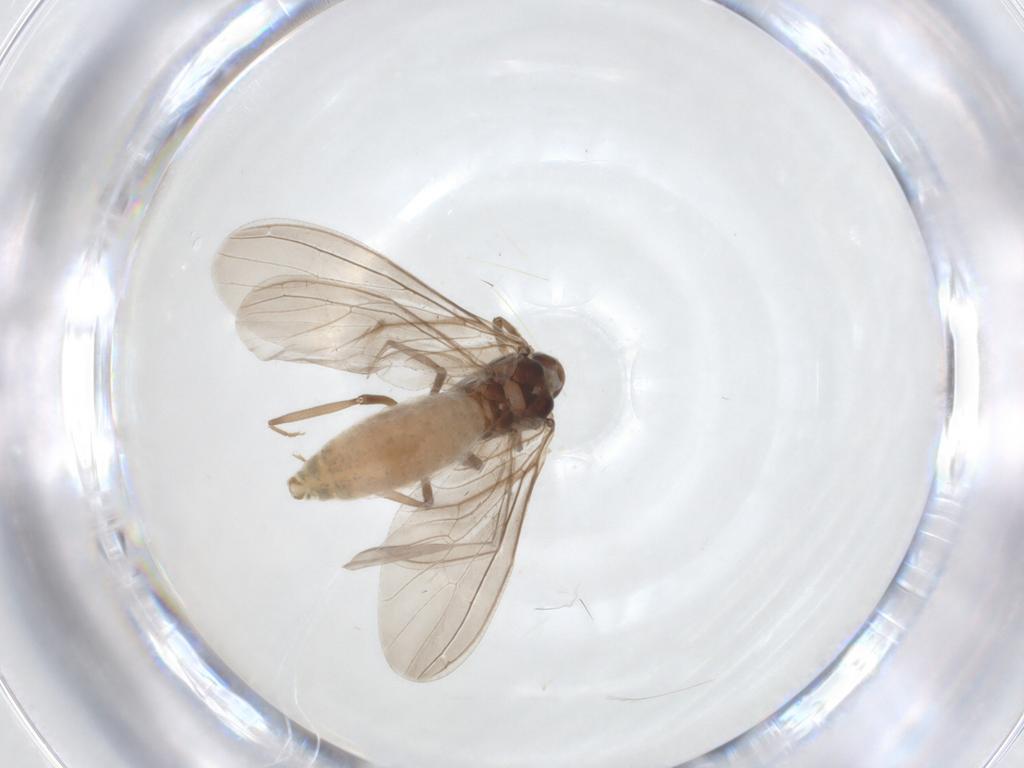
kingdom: Animalia
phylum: Arthropoda
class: Insecta
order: Neuroptera
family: Coniopterygidae
